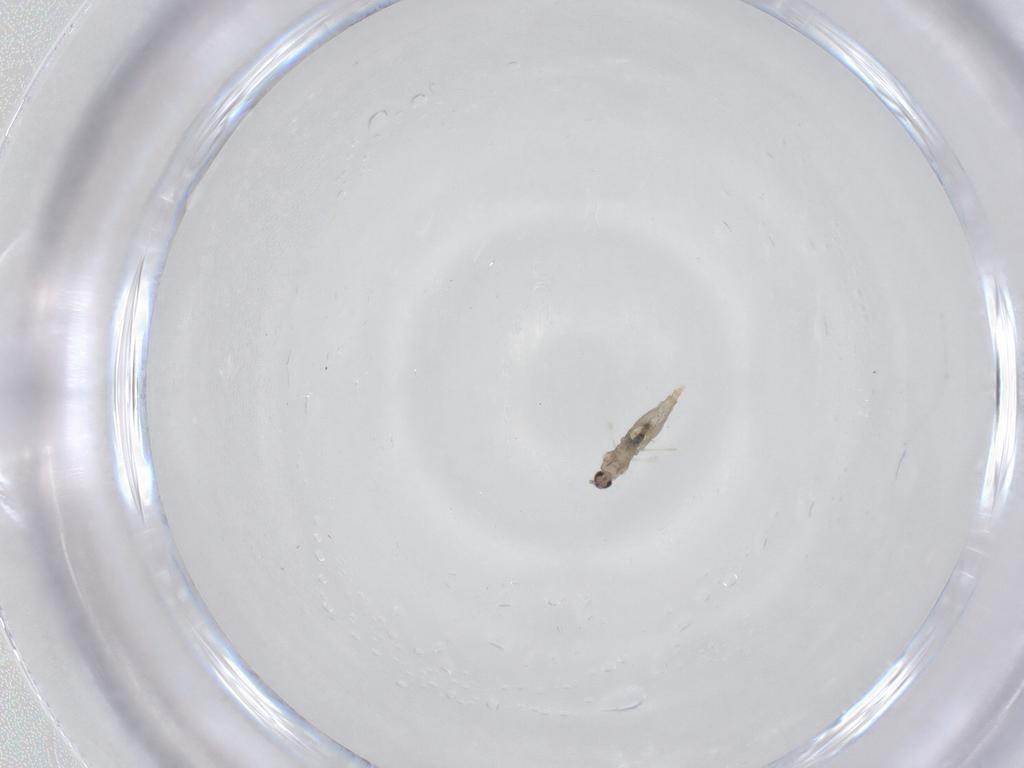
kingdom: Animalia
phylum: Arthropoda
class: Insecta
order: Diptera
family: Cecidomyiidae
